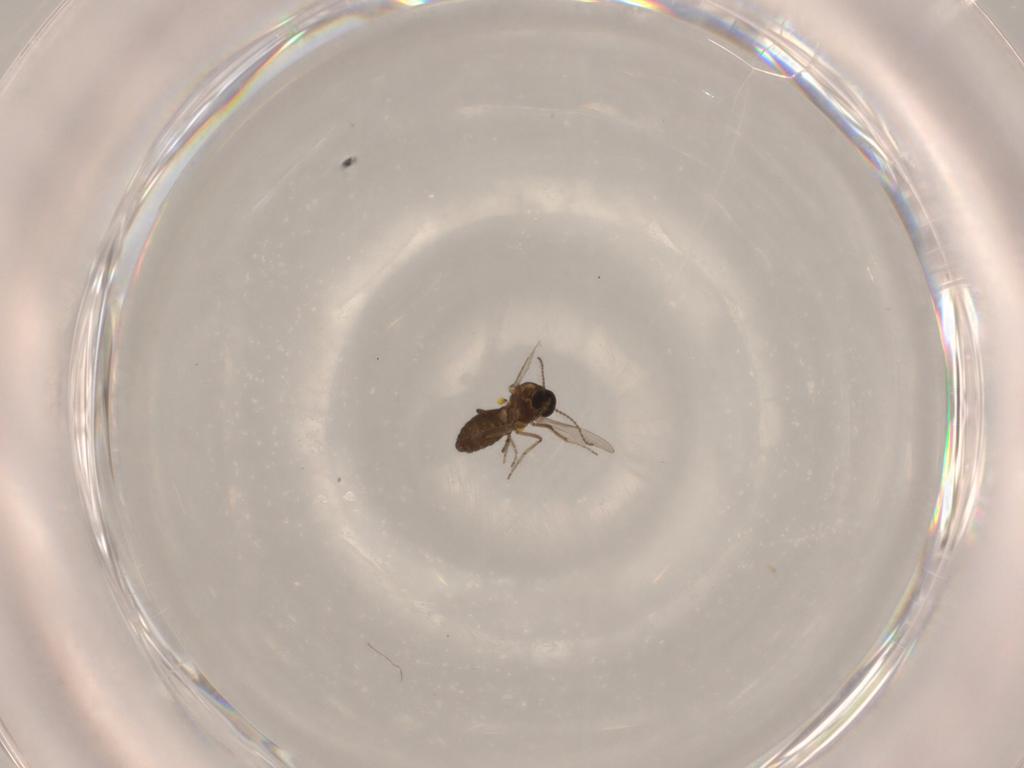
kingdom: Animalia
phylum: Arthropoda
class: Insecta
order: Diptera
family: Ceratopogonidae
